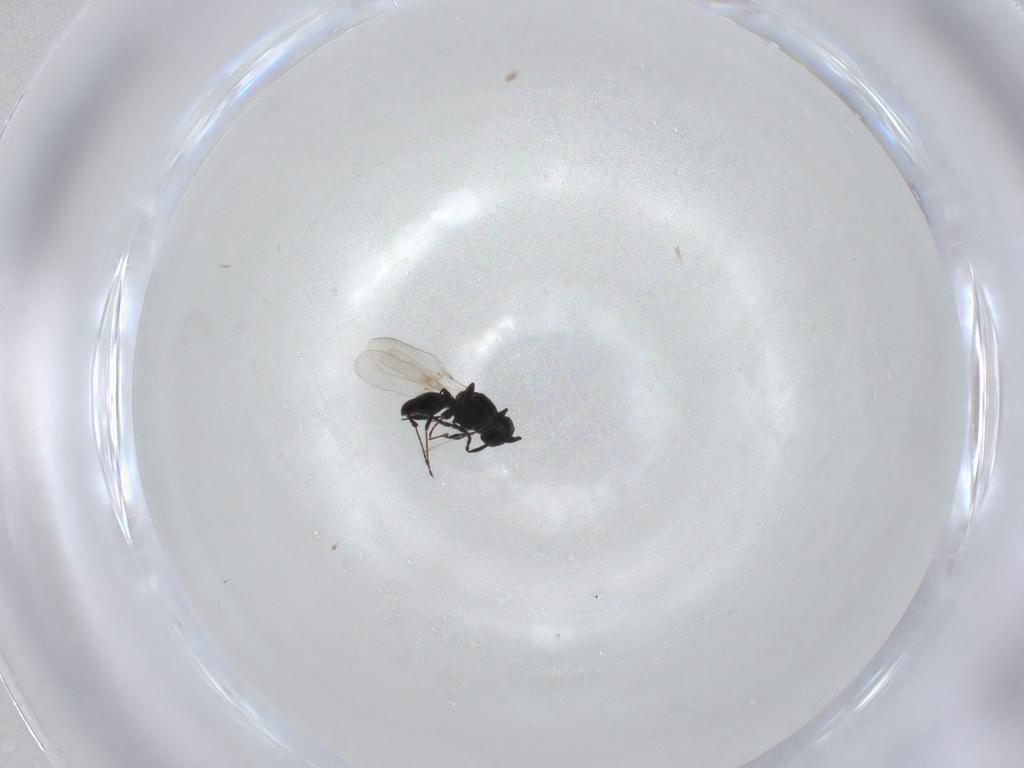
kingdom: Animalia
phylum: Arthropoda
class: Insecta
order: Hymenoptera
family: Platygastridae
